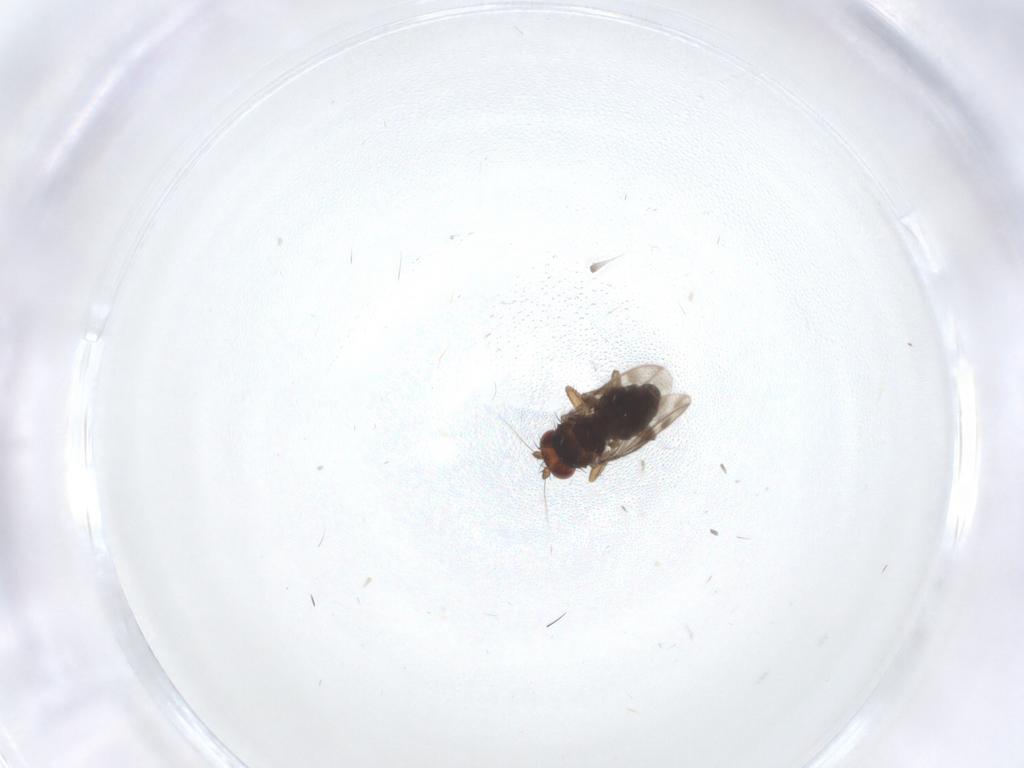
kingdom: Animalia
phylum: Arthropoda
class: Insecta
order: Diptera
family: Sphaeroceridae
